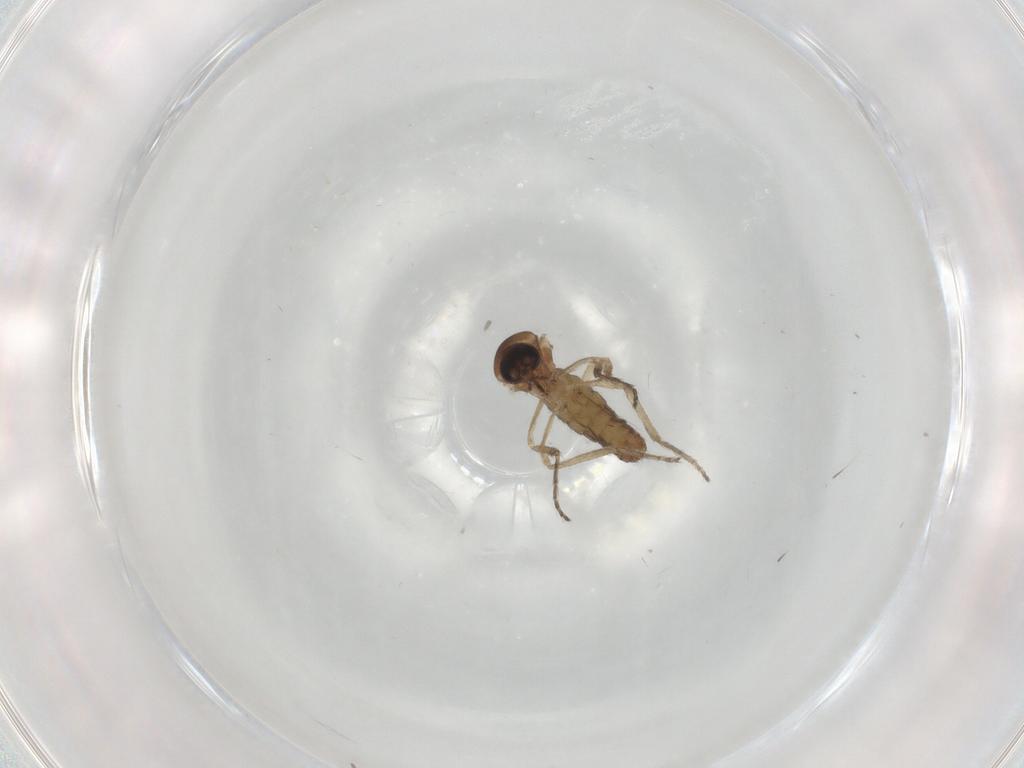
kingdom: Animalia
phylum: Arthropoda
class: Insecta
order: Diptera
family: Ceratopogonidae
